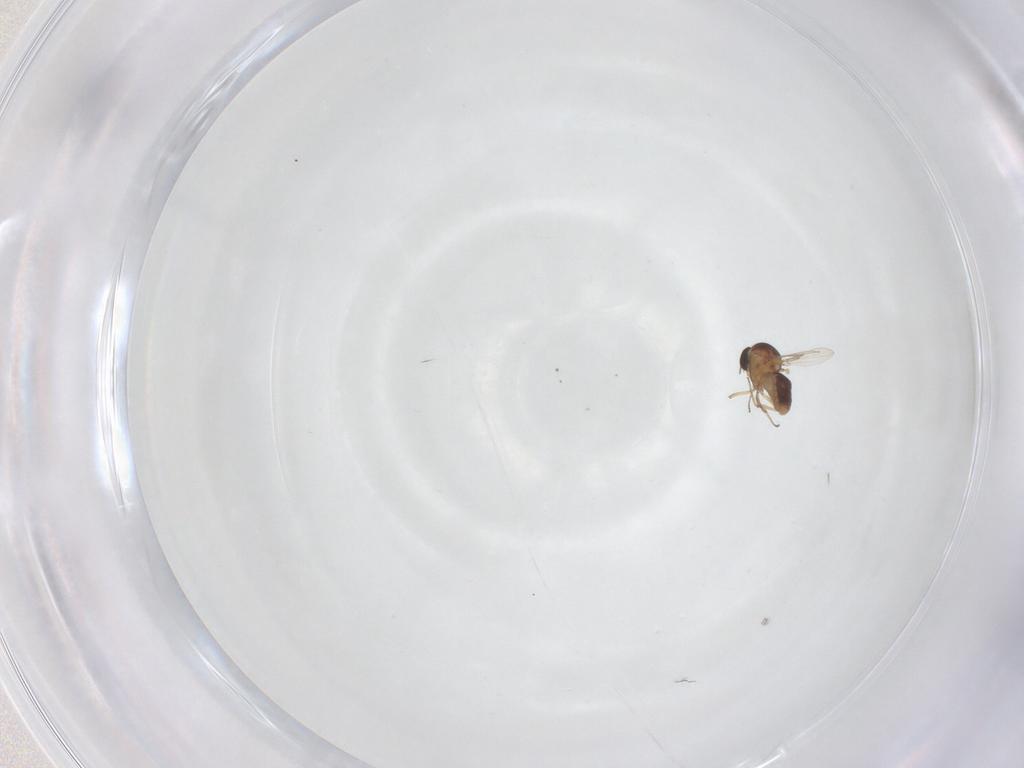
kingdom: Animalia
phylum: Arthropoda
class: Insecta
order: Diptera
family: Ceratopogonidae
